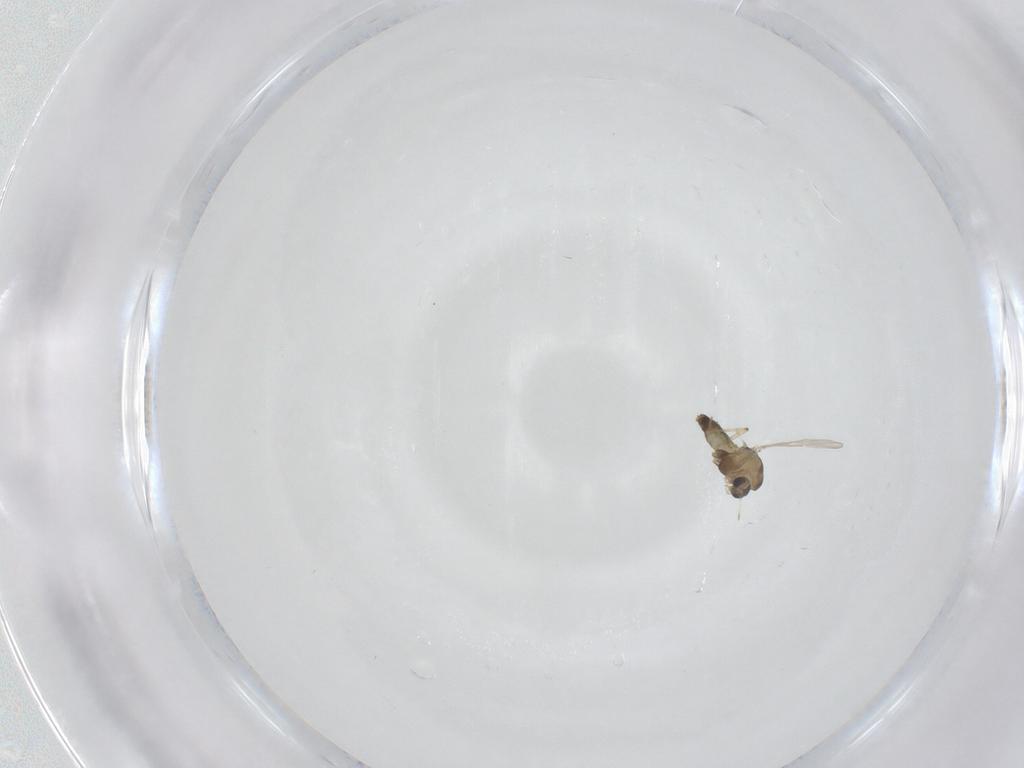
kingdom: Animalia
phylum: Arthropoda
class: Insecta
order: Diptera
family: Chironomidae
